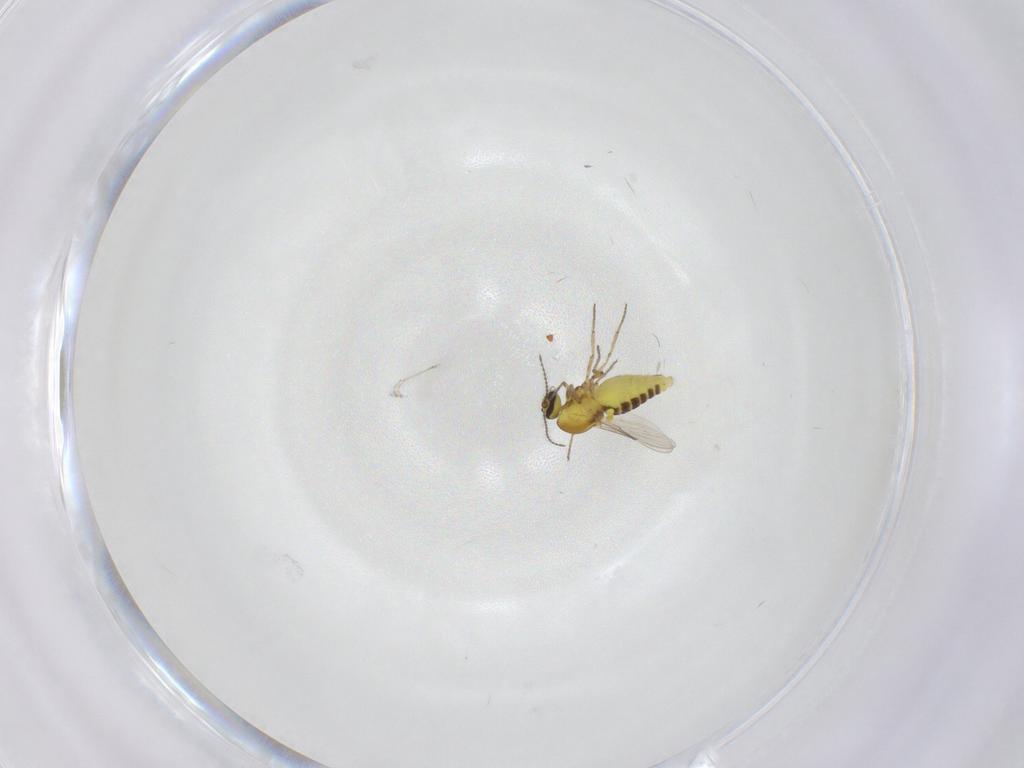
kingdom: Animalia
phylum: Arthropoda
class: Insecta
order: Diptera
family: Ceratopogonidae
